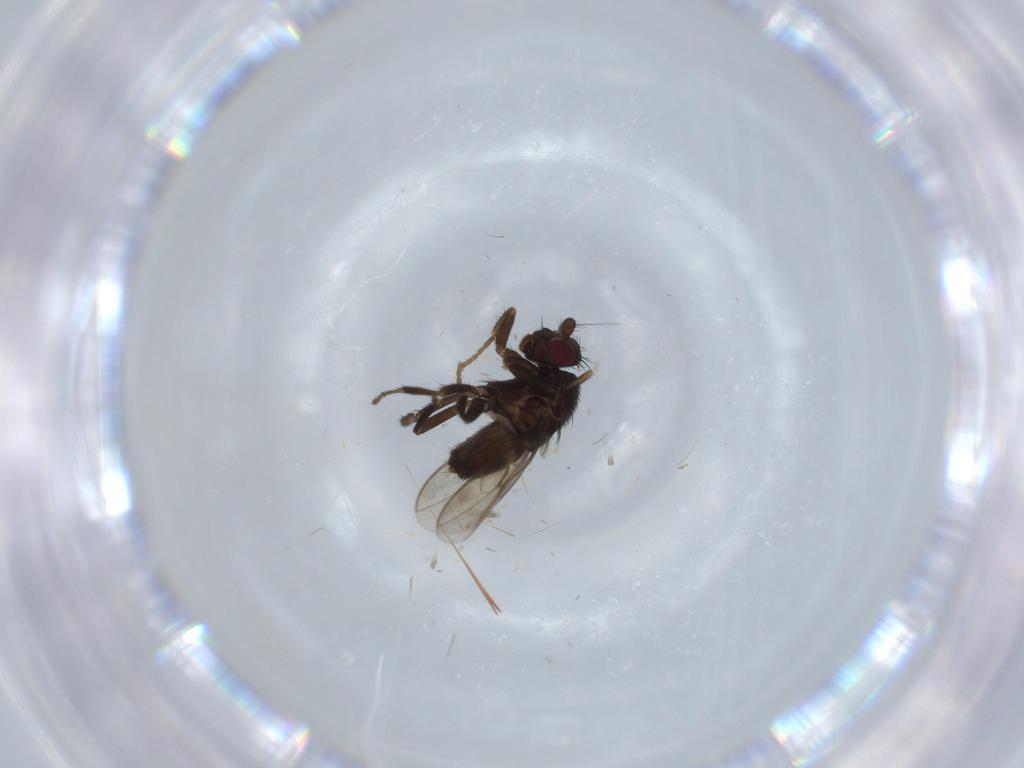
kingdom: Animalia
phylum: Arthropoda
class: Insecta
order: Diptera
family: Sphaeroceridae
